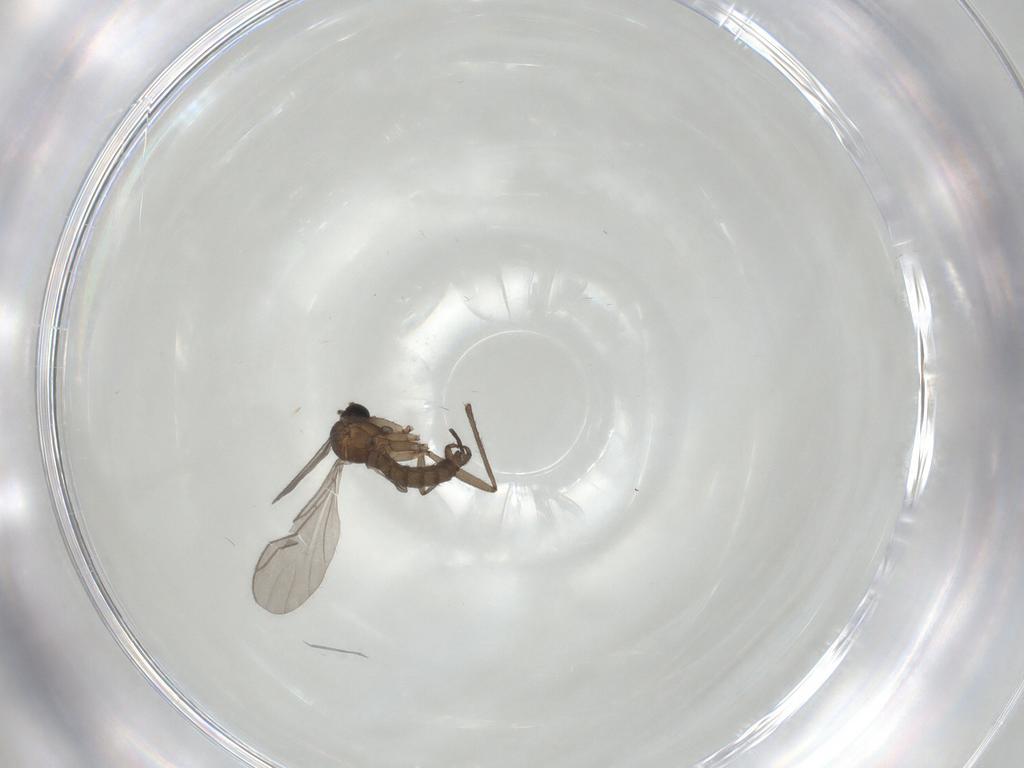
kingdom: Animalia
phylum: Arthropoda
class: Insecta
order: Diptera
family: Sciaridae
